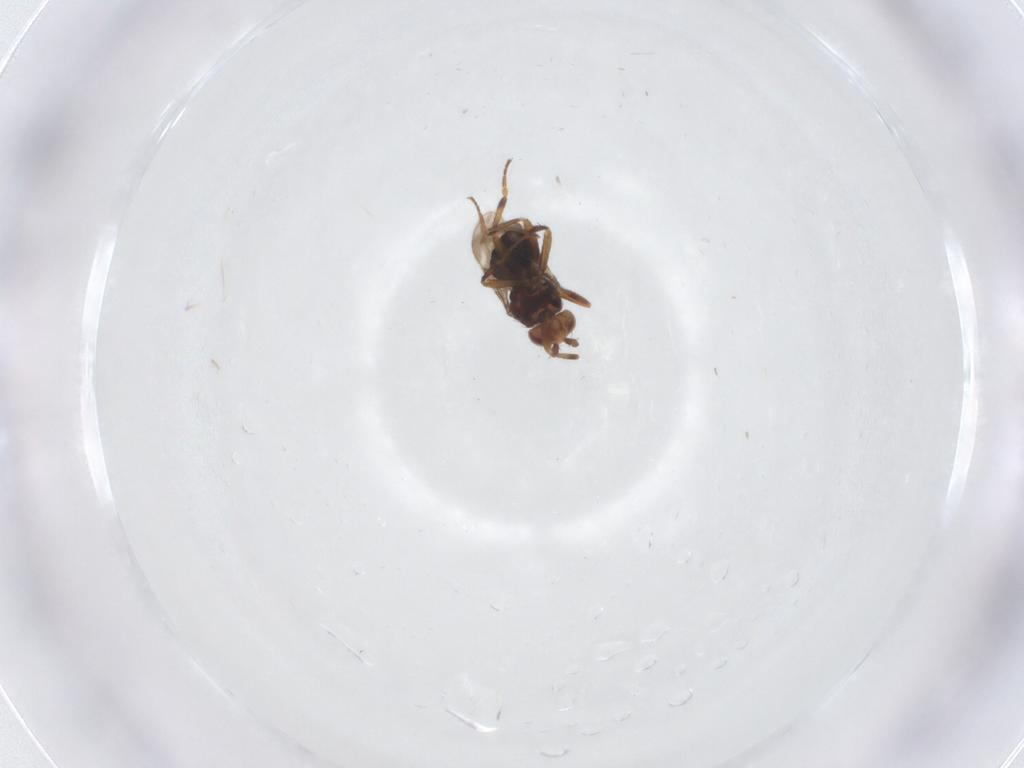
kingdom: Animalia
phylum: Arthropoda
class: Insecta
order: Diptera
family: Sphaeroceridae
